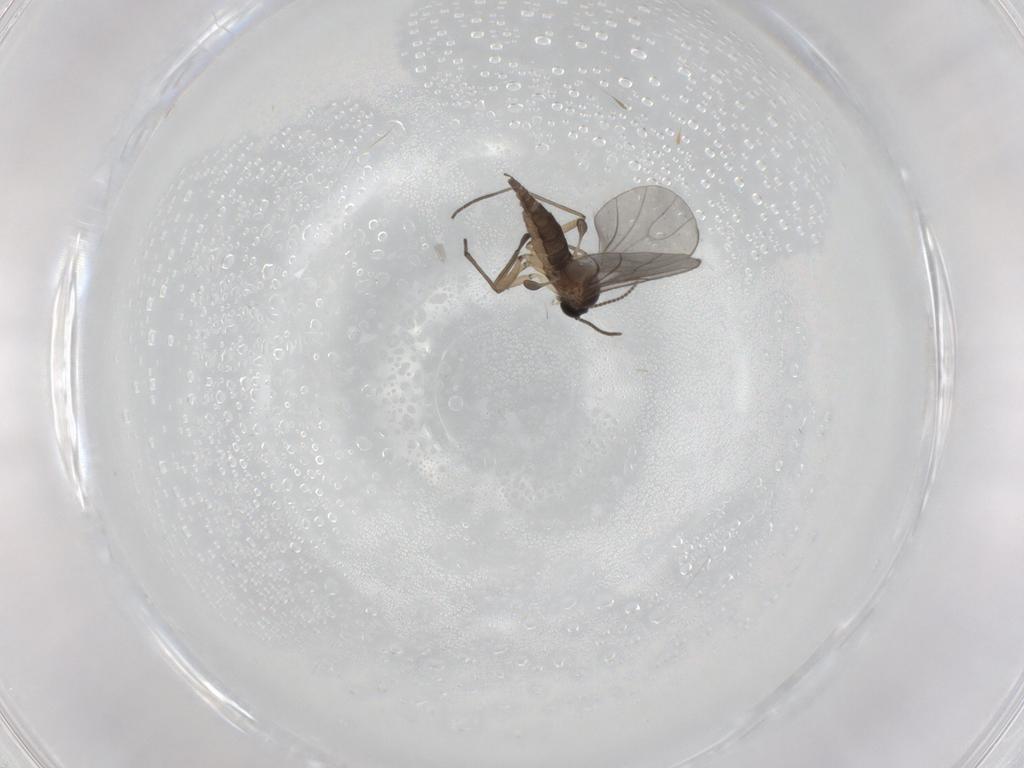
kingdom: Animalia
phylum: Arthropoda
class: Insecta
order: Diptera
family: Sciaridae
